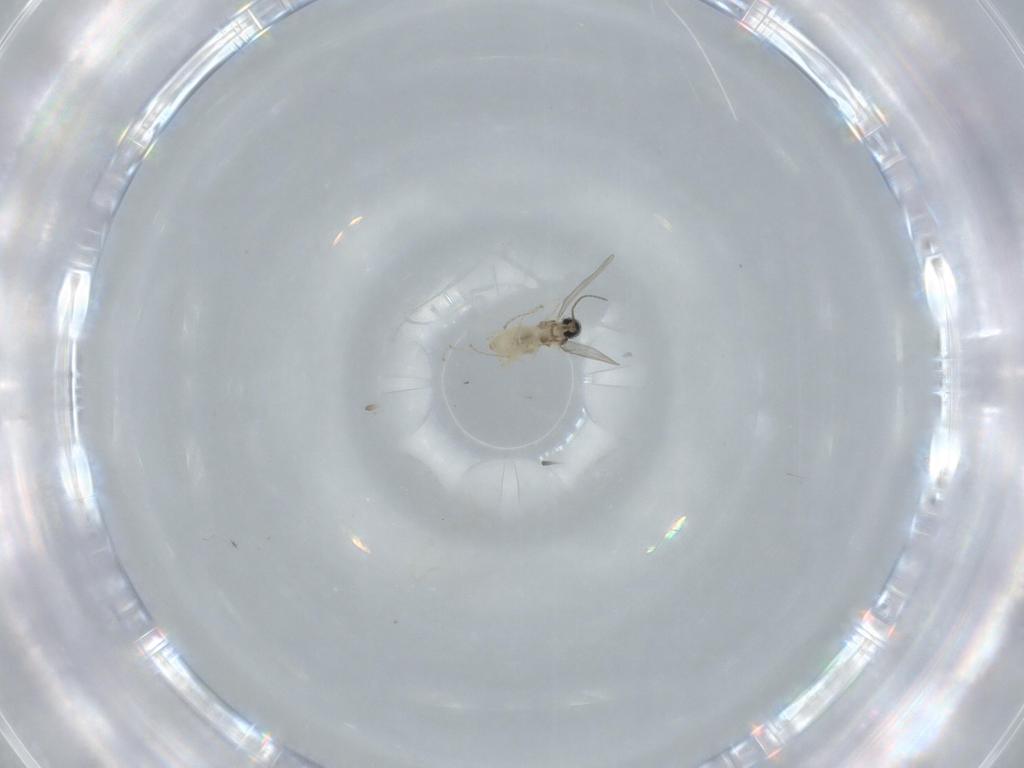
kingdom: Animalia
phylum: Arthropoda
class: Insecta
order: Diptera
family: Cecidomyiidae
